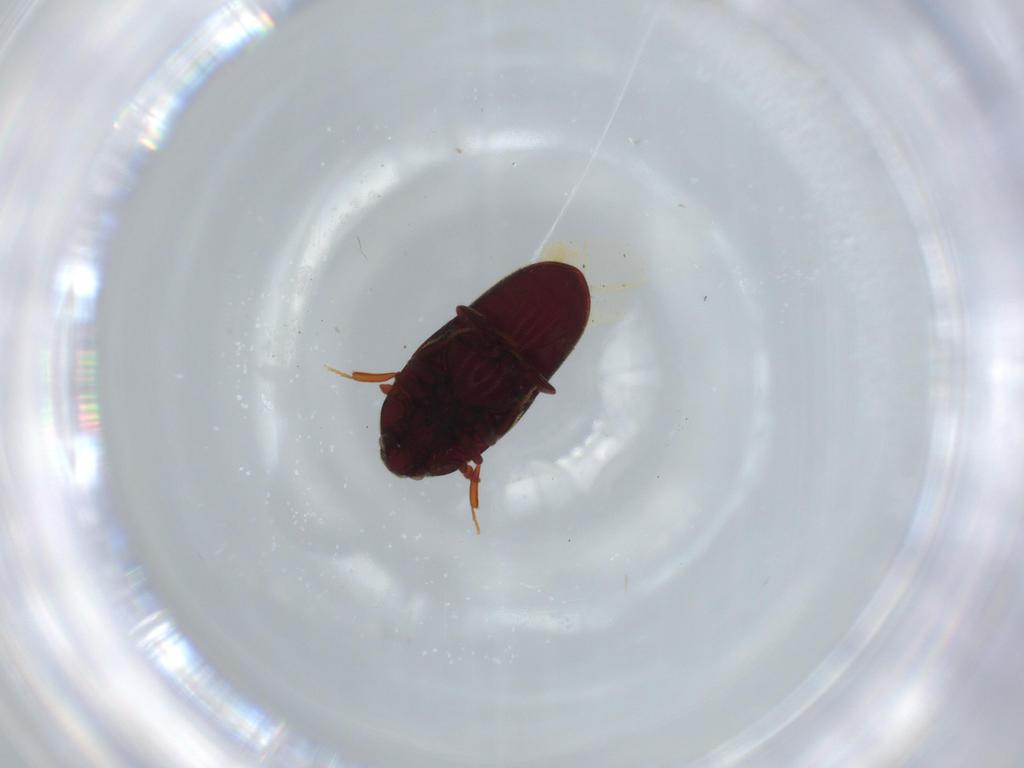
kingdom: Animalia
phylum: Arthropoda
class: Insecta
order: Coleoptera
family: Throscidae
